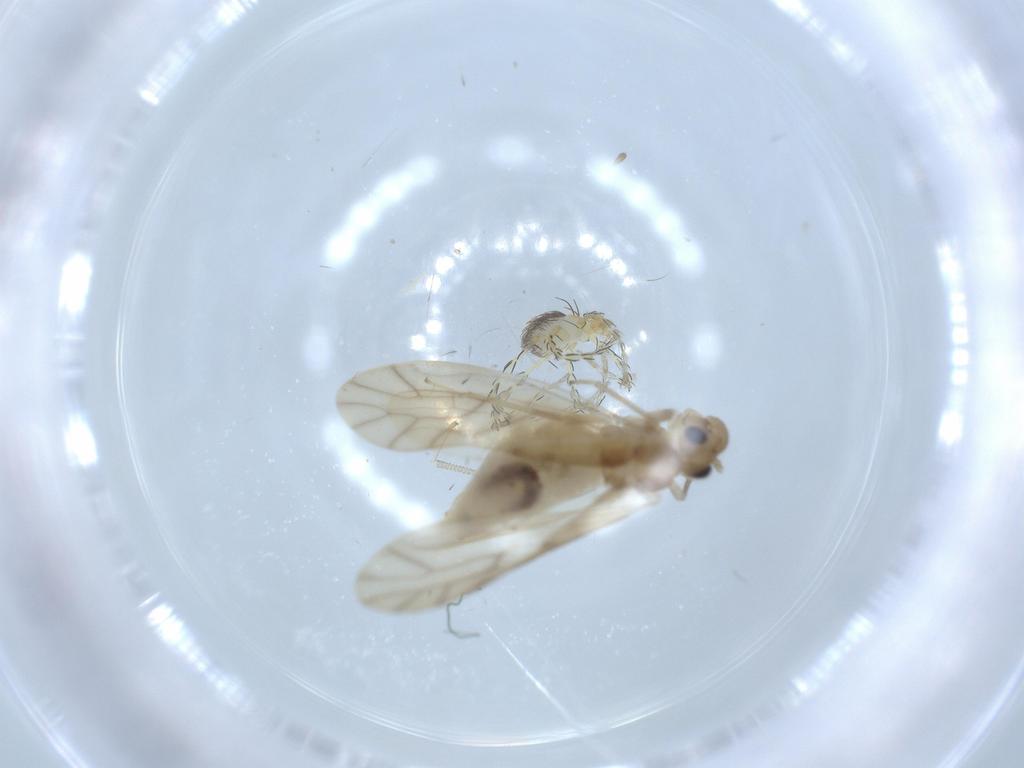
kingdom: Animalia
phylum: Arthropoda
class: Insecta
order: Psocodea
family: Caeciliusidae
